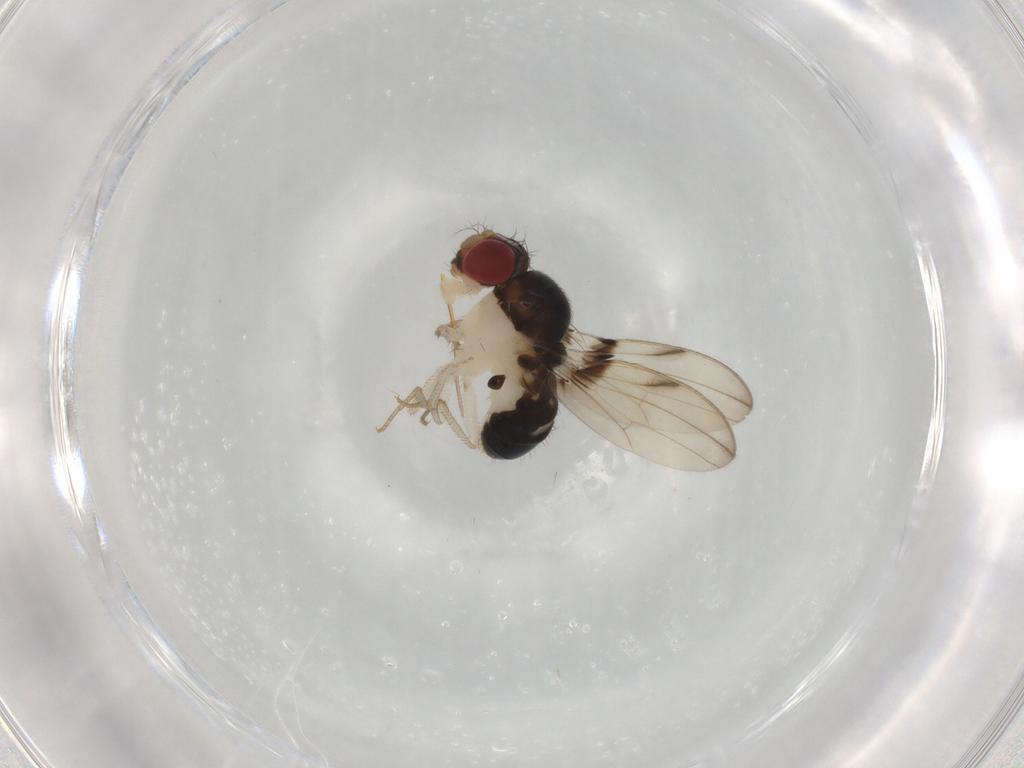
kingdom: Animalia
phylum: Arthropoda
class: Insecta
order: Diptera
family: Drosophilidae
